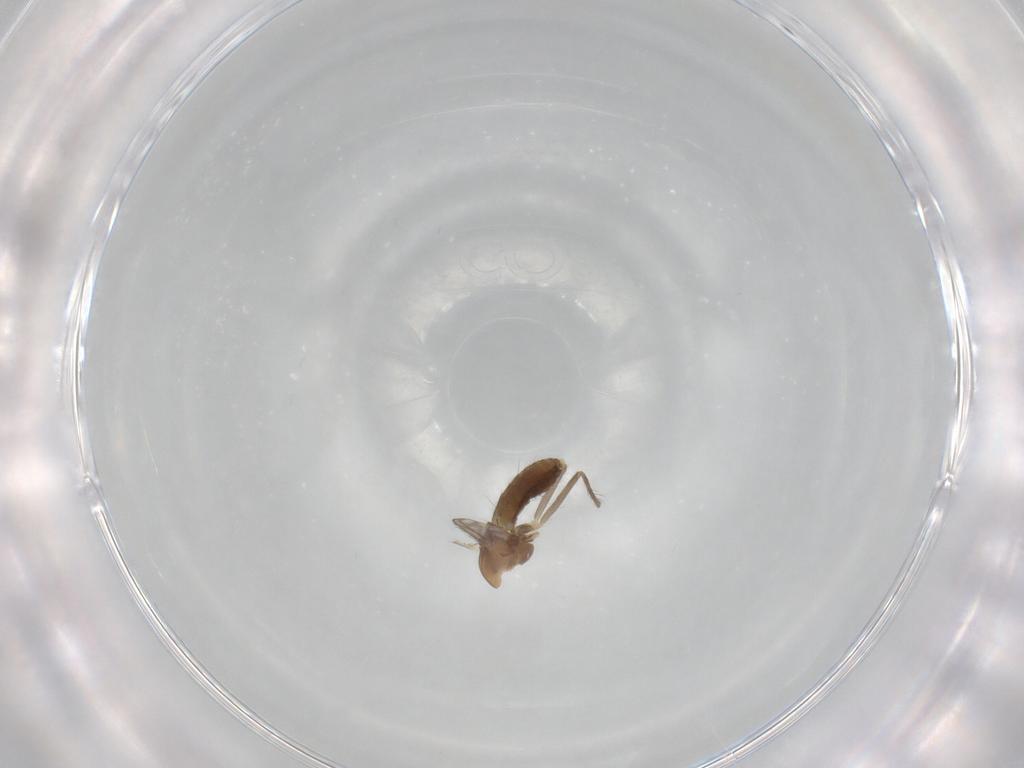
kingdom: Animalia
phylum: Arthropoda
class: Insecta
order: Diptera
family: Chironomidae
